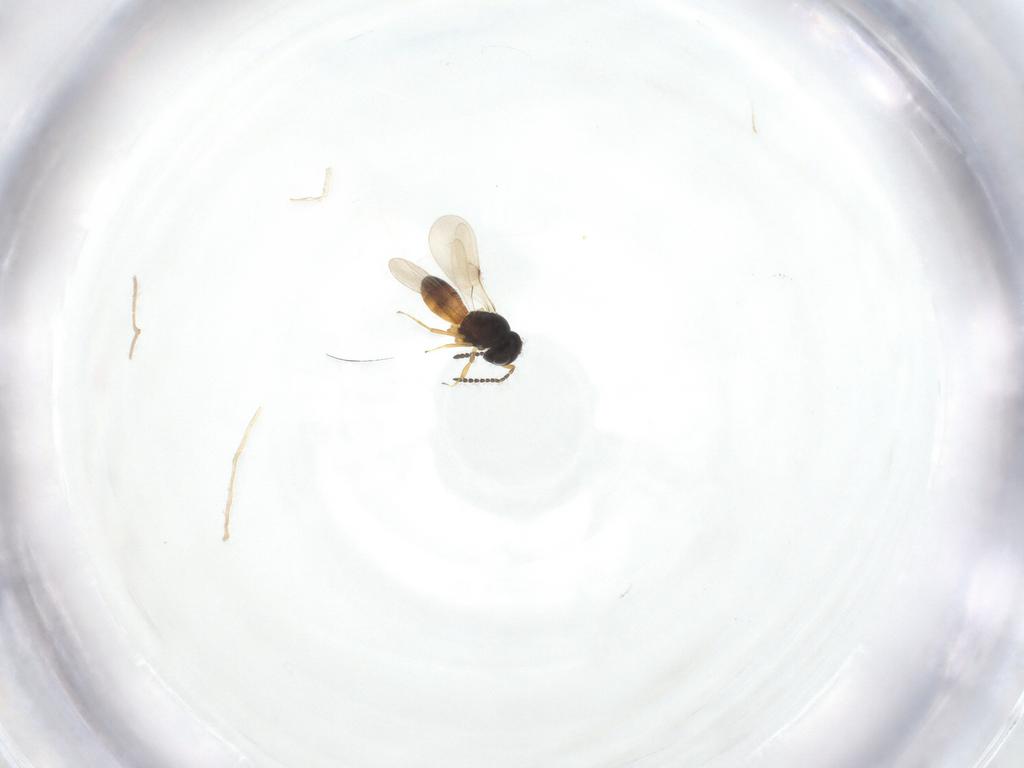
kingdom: Animalia
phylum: Arthropoda
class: Insecta
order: Hymenoptera
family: Scelionidae
